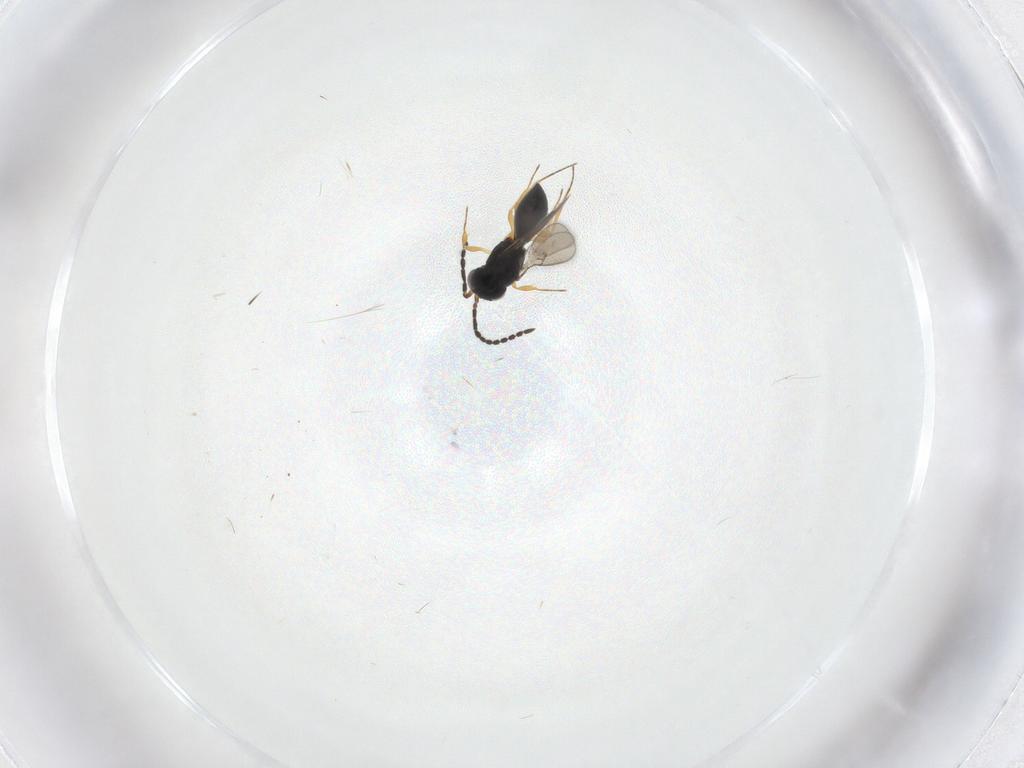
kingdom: Animalia
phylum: Arthropoda
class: Insecta
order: Hymenoptera
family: Scelionidae
